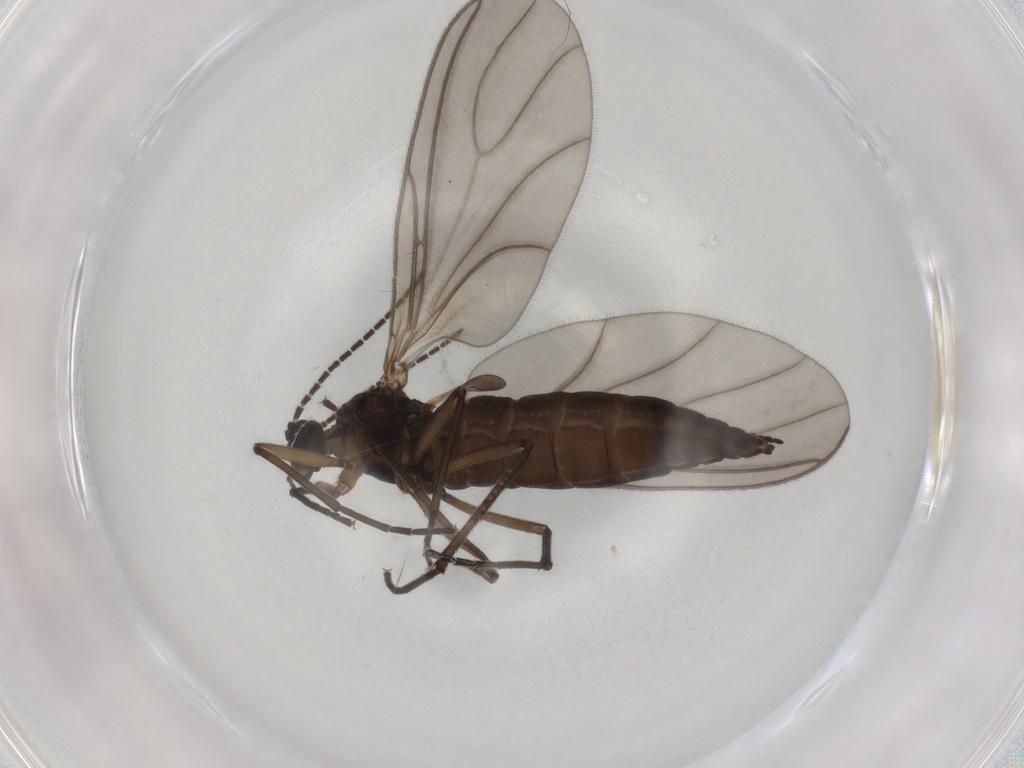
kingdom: Animalia
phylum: Arthropoda
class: Insecta
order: Diptera
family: Sciaridae
